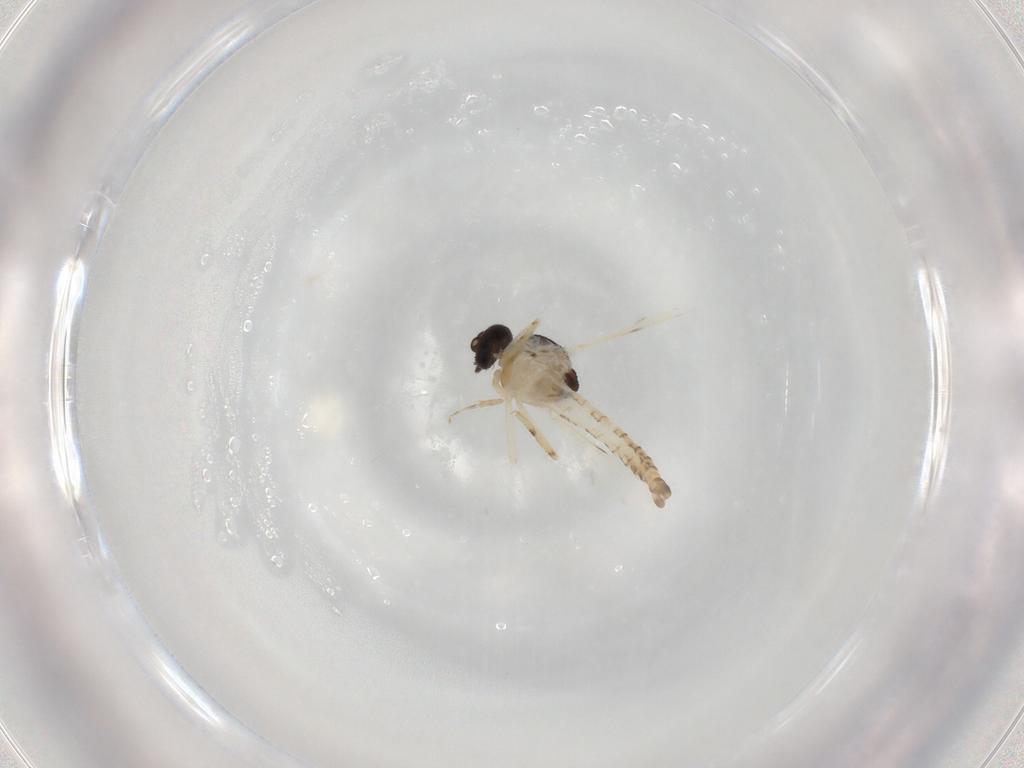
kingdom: Animalia
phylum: Arthropoda
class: Insecta
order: Diptera
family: Ceratopogonidae
